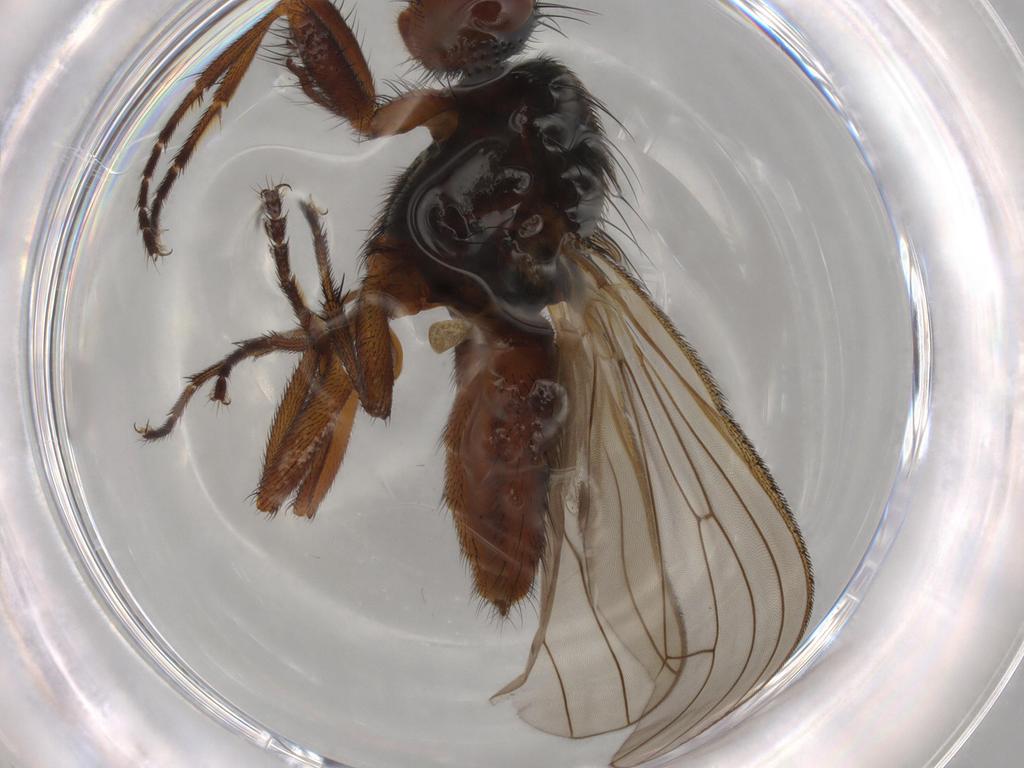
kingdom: Animalia
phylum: Arthropoda
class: Insecta
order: Diptera
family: Heleomyzidae
